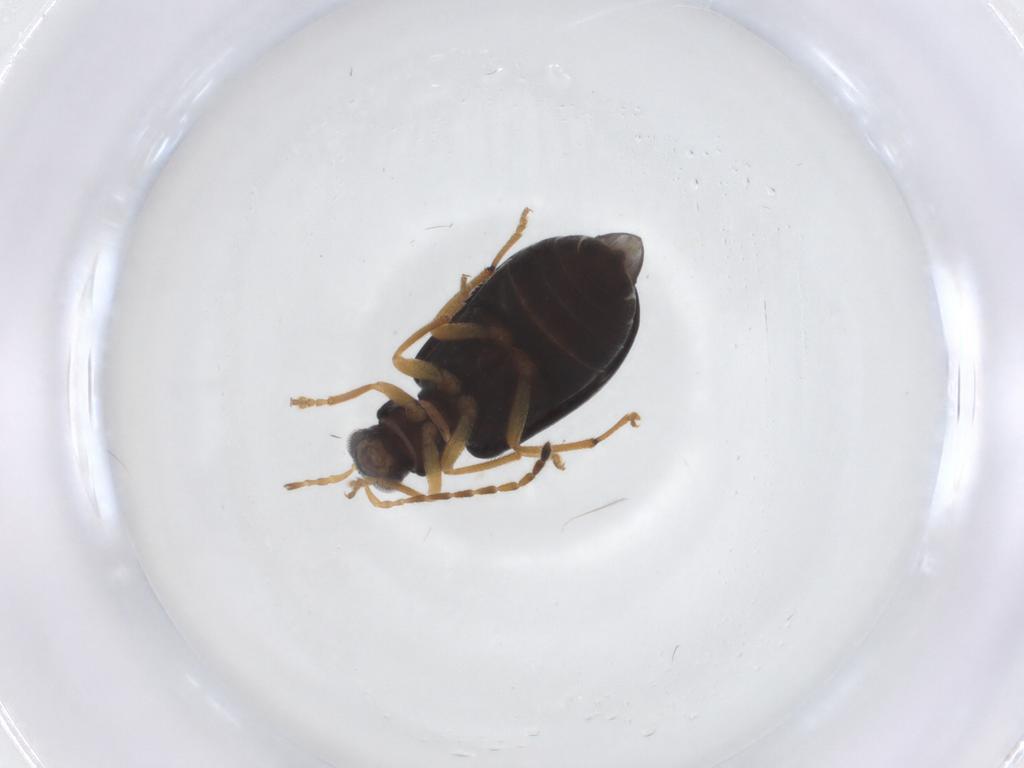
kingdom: Animalia
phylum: Arthropoda
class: Insecta
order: Coleoptera
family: Chrysomelidae
